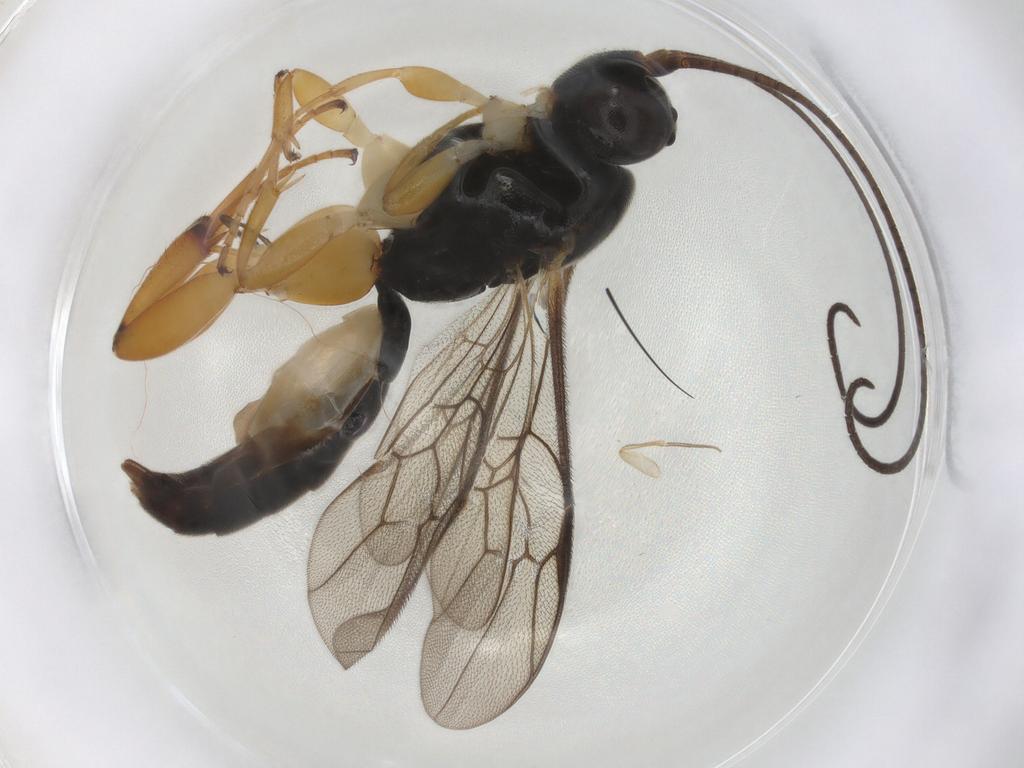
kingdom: Animalia
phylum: Arthropoda
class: Insecta
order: Hymenoptera
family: Ichneumonidae
